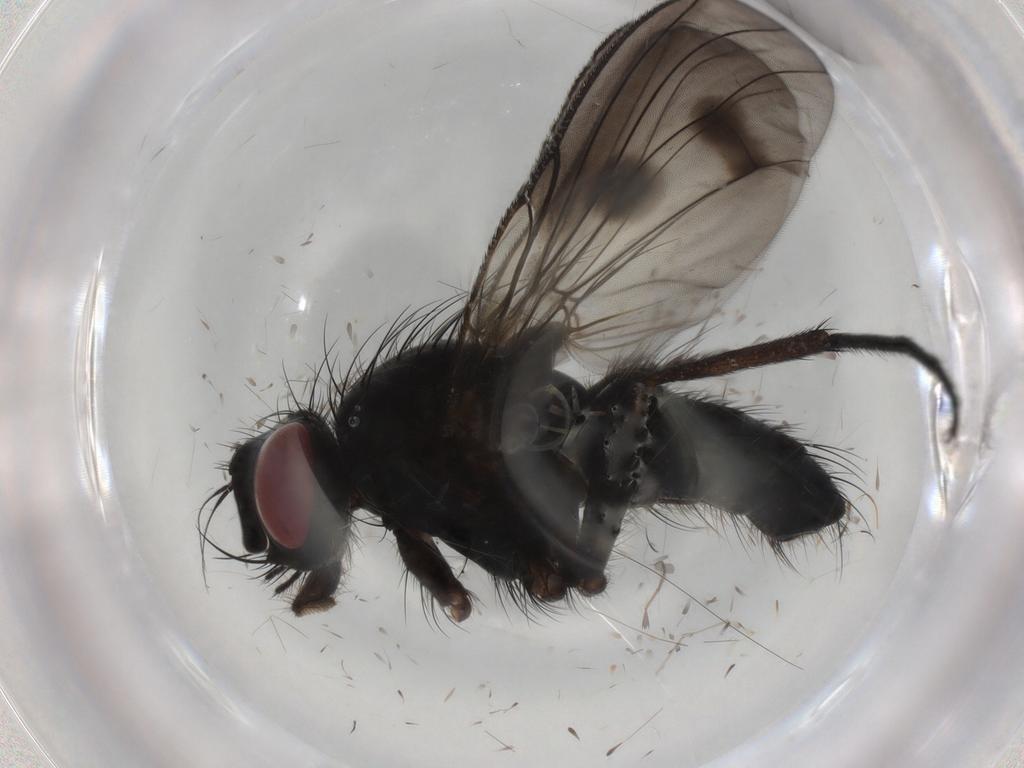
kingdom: Animalia
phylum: Arthropoda
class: Insecta
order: Diptera
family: Muscidae
